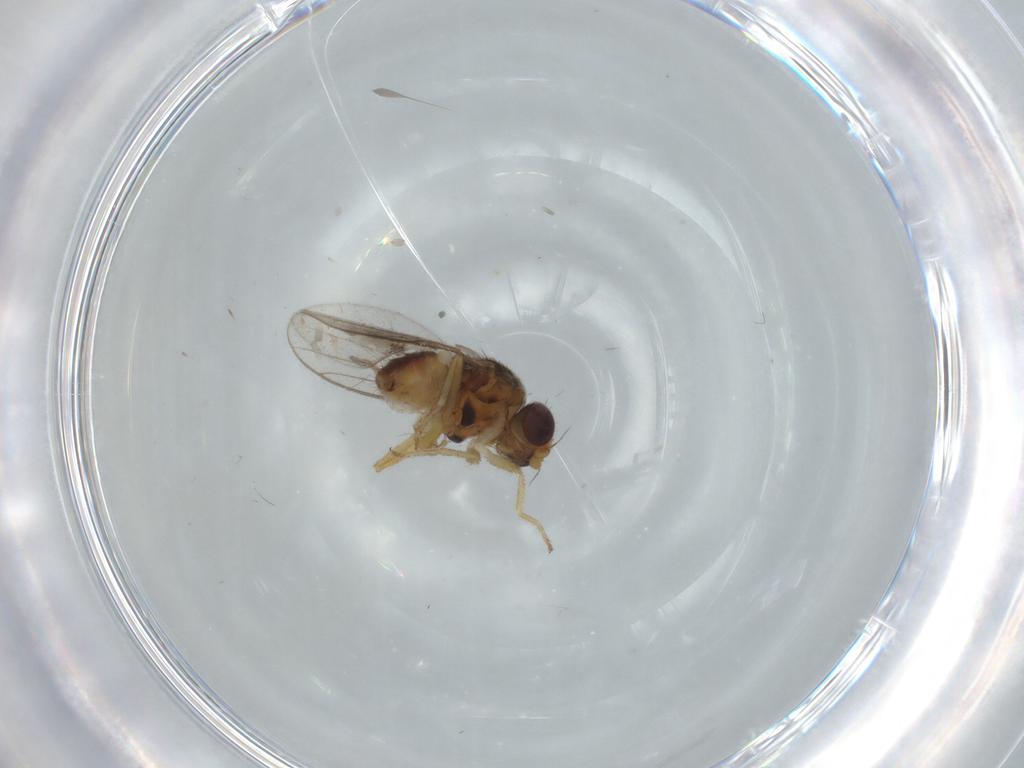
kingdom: Animalia
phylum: Arthropoda
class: Insecta
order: Diptera
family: Chloropidae
